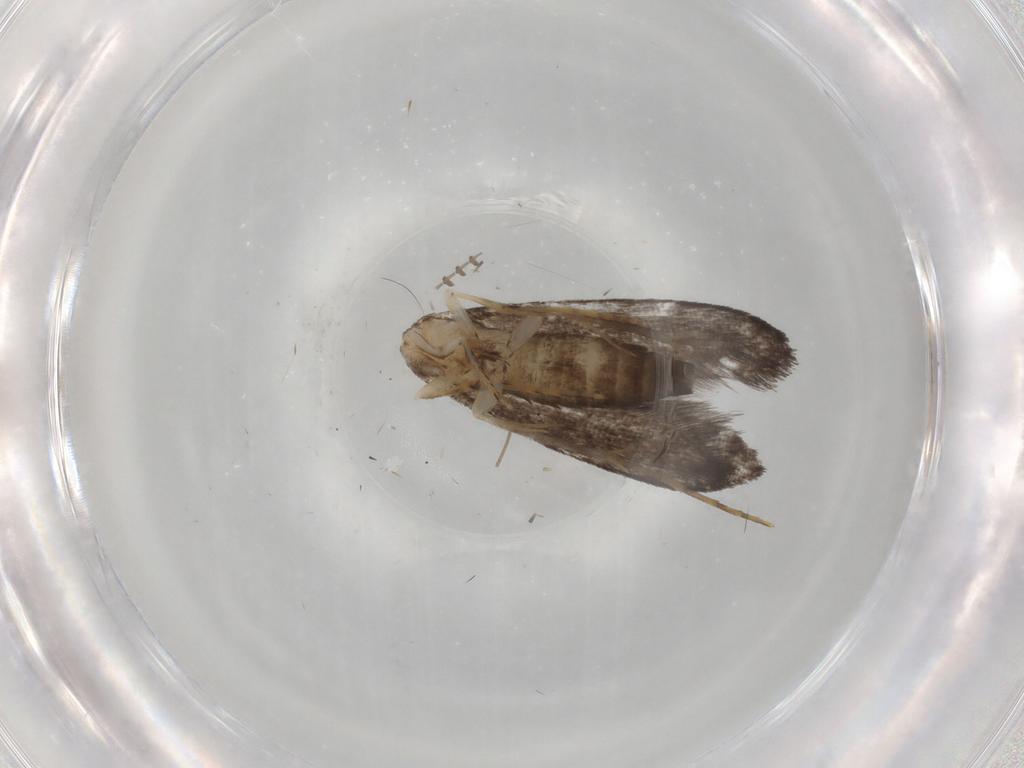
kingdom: Animalia
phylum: Arthropoda
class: Insecta
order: Lepidoptera
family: Tineidae
